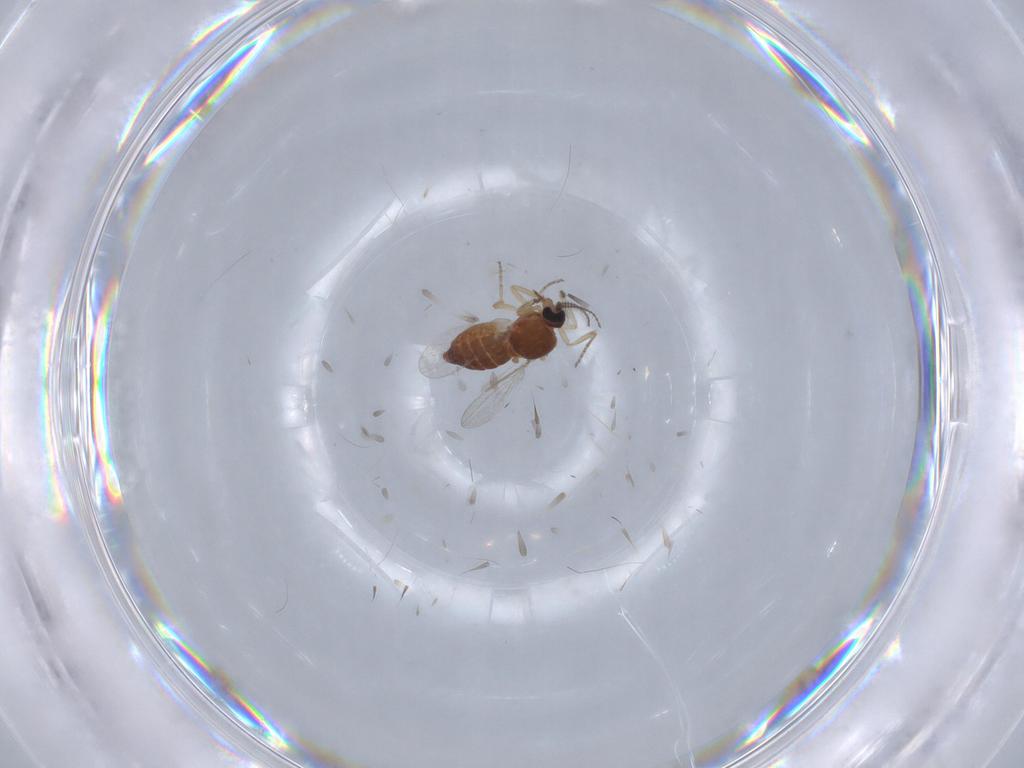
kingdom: Animalia
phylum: Arthropoda
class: Insecta
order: Diptera
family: Ceratopogonidae
